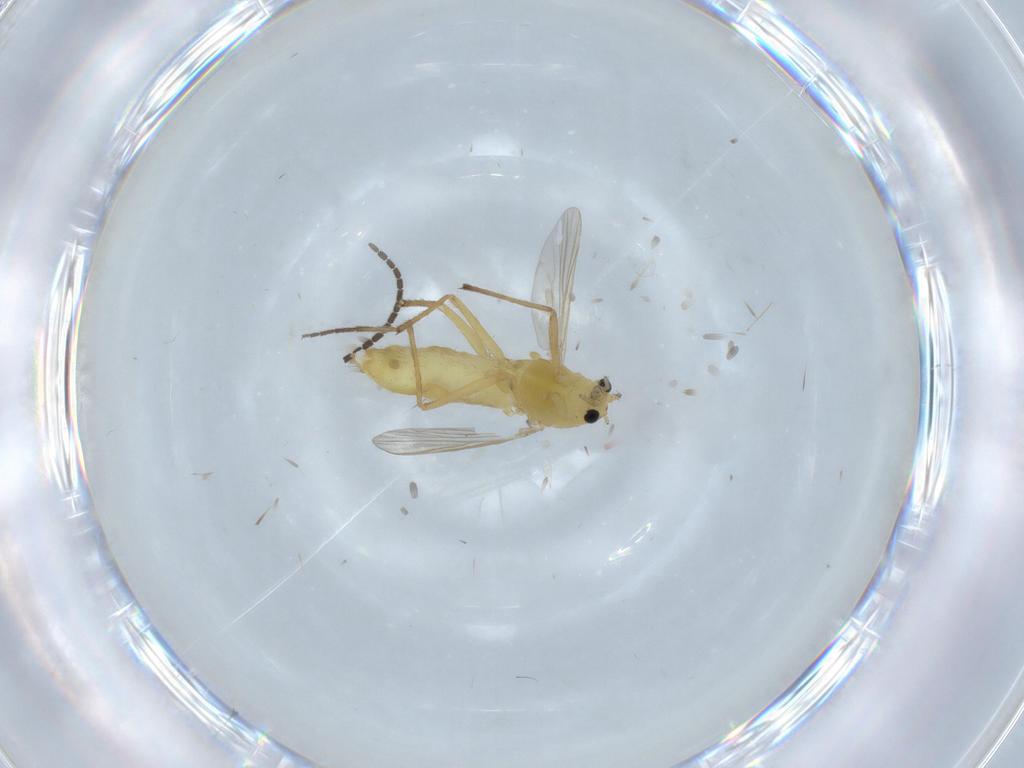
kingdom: Animalia
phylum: Arthropoda
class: Insecta
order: Diptera
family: Chironomidae
